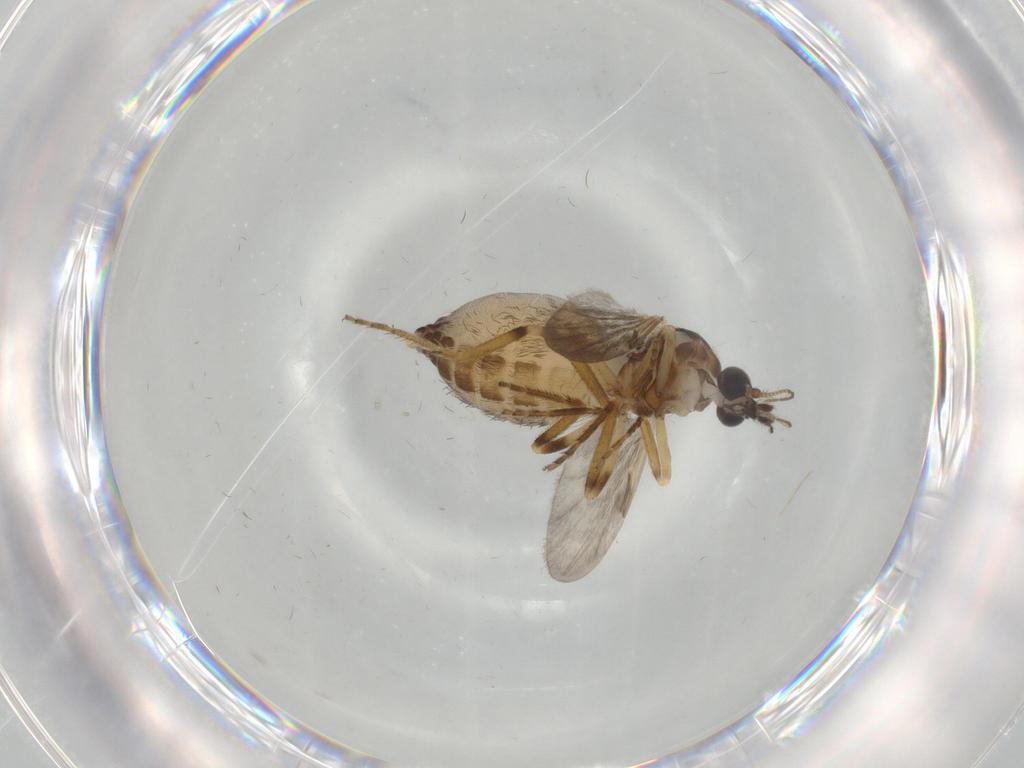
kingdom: Animalia
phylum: Arthropoda
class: Insecta
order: Diptera
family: Ceratopogonidae
